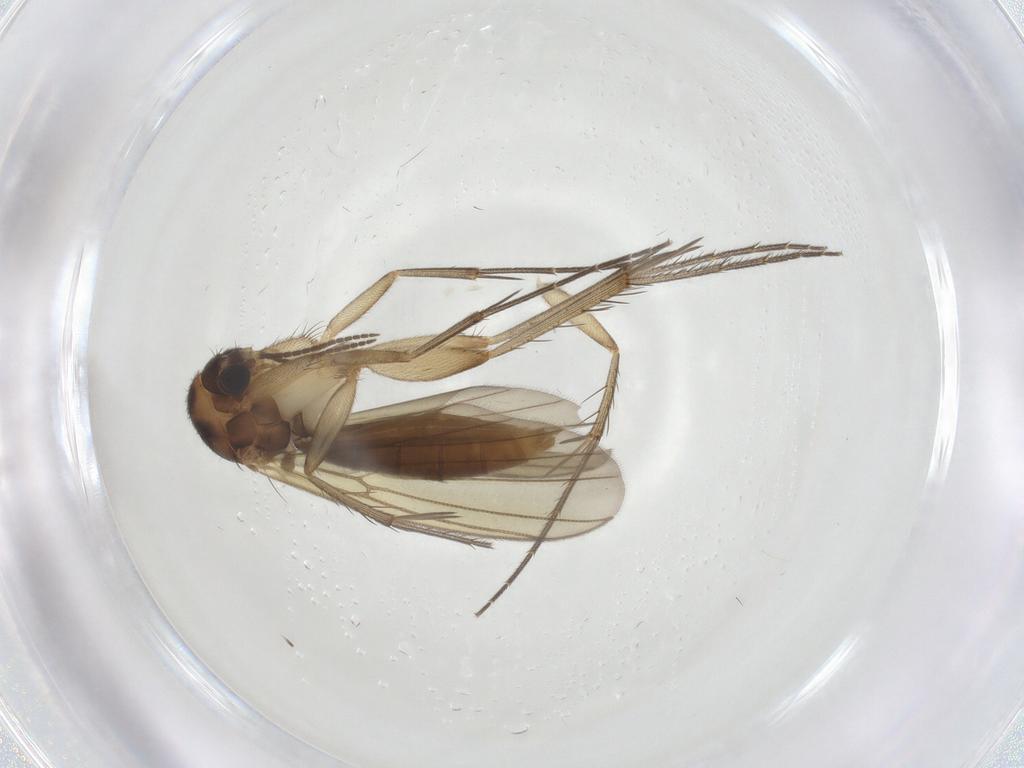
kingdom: Animalia
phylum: Arthropoda
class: Insecta
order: Diptera
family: Mycetophilidae
